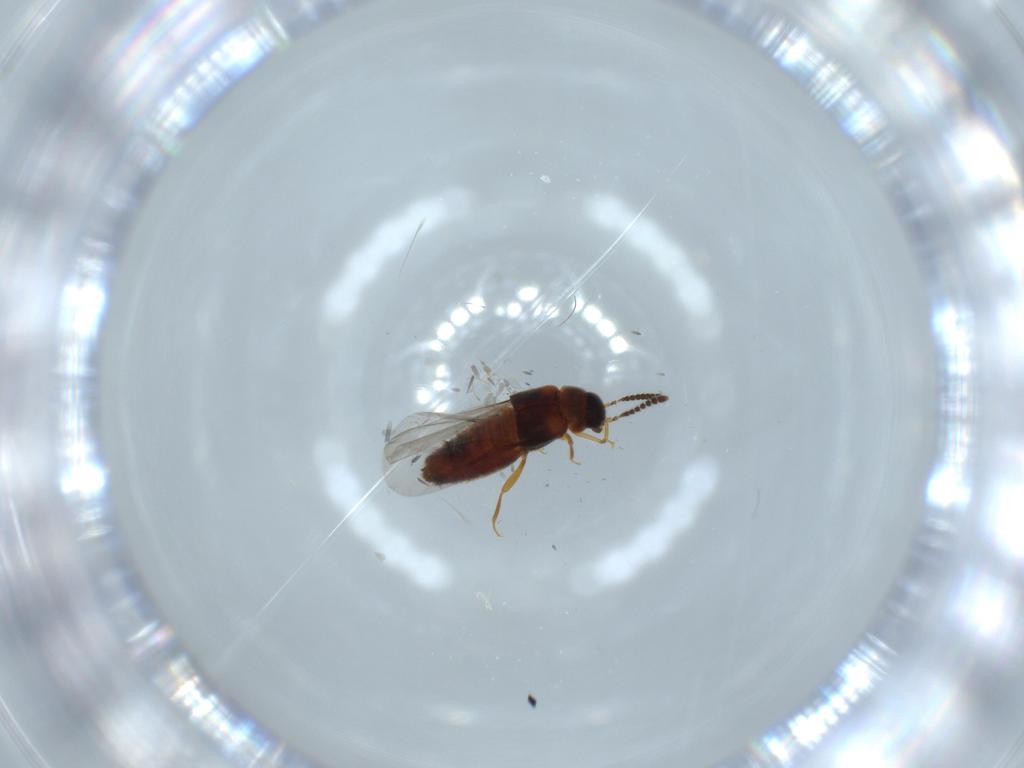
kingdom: Animalia
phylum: Arthropoda
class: Insecta
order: Coleoptera
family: Staphylinidae
